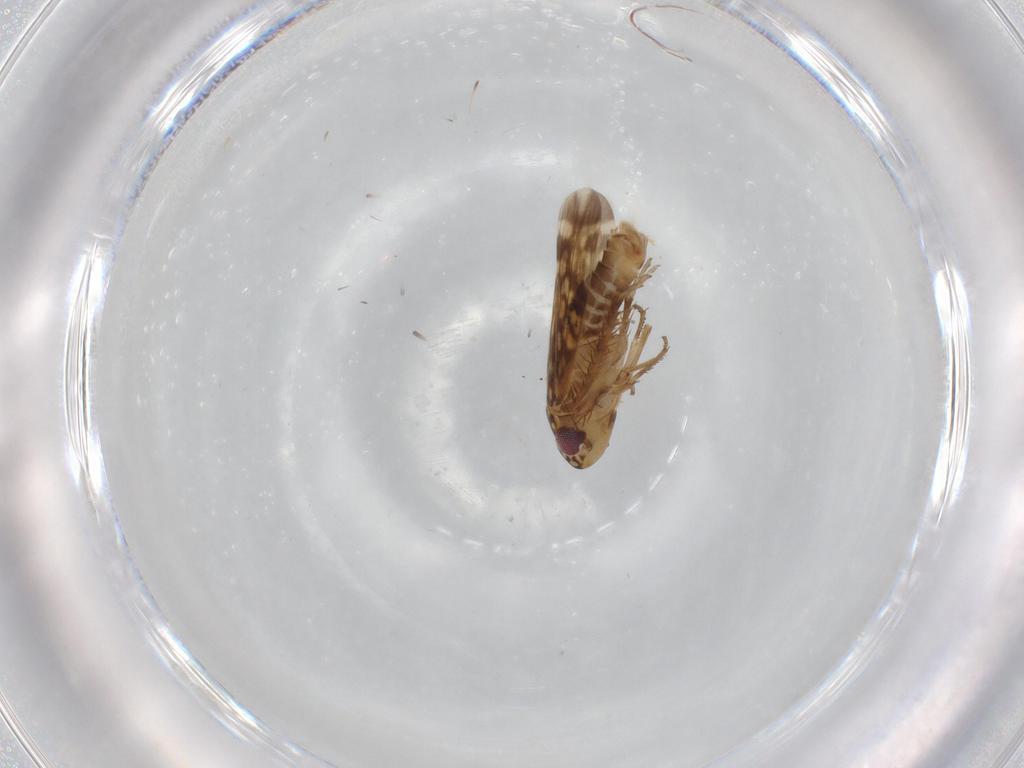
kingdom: Animalia
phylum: Arthropoda
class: Insecta
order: Hemiptera
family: Cicadellidae
